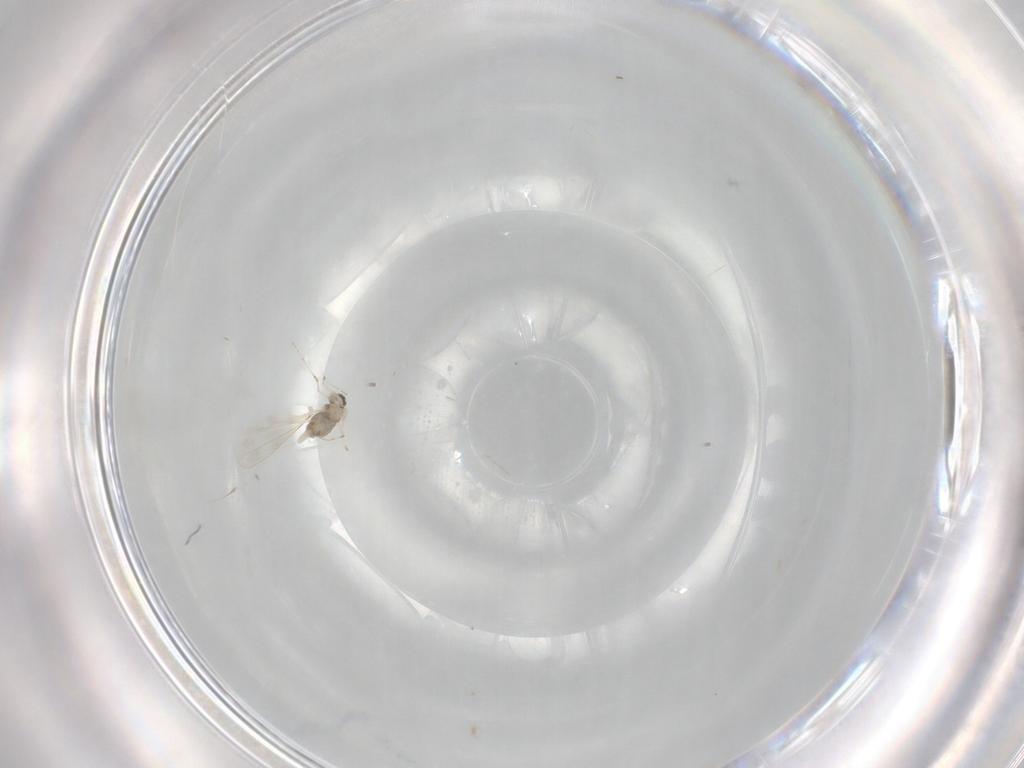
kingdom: Animalia
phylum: Arthropoda
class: Insecta
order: Diptera
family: Cecidomyiidae
